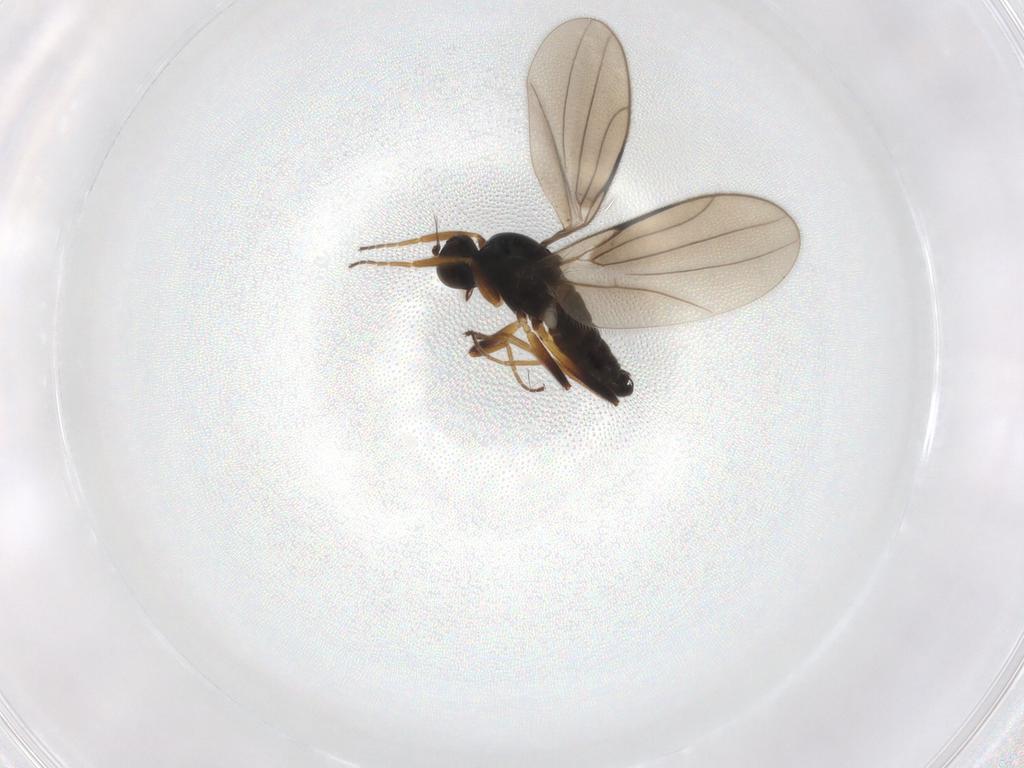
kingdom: Animalia
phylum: Arthropoda
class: Insecta
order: Diptera
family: Hybotidae
